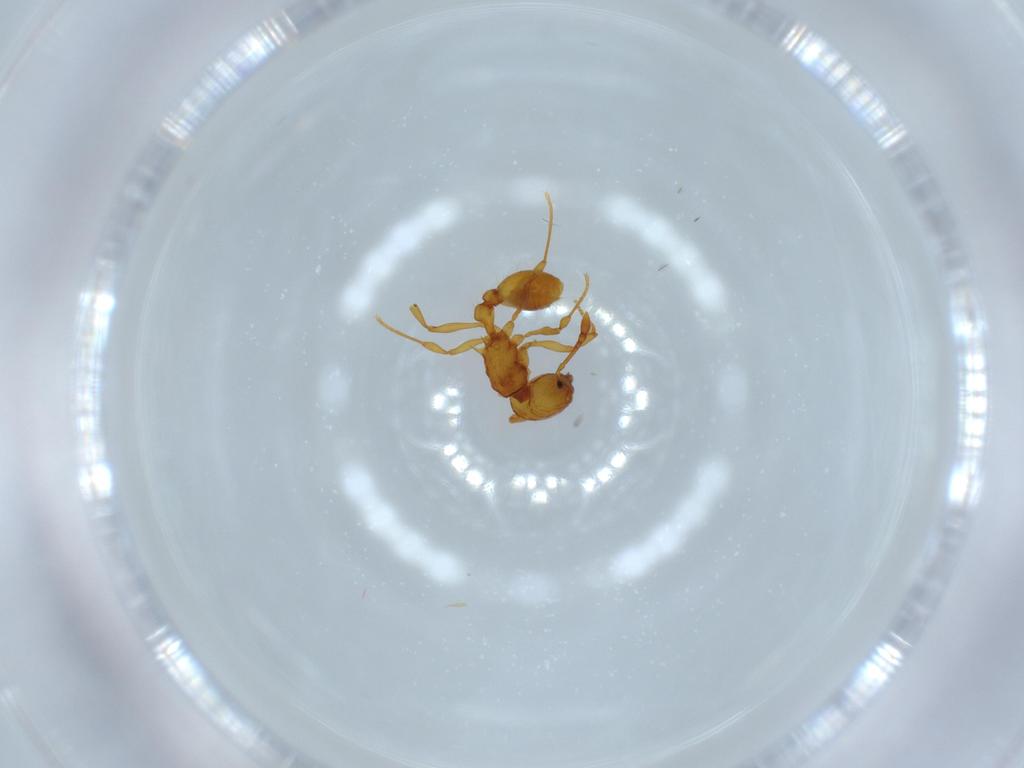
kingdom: Animalia
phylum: Arthropoda
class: Insecta
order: Hymenoptera
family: Formicidae
